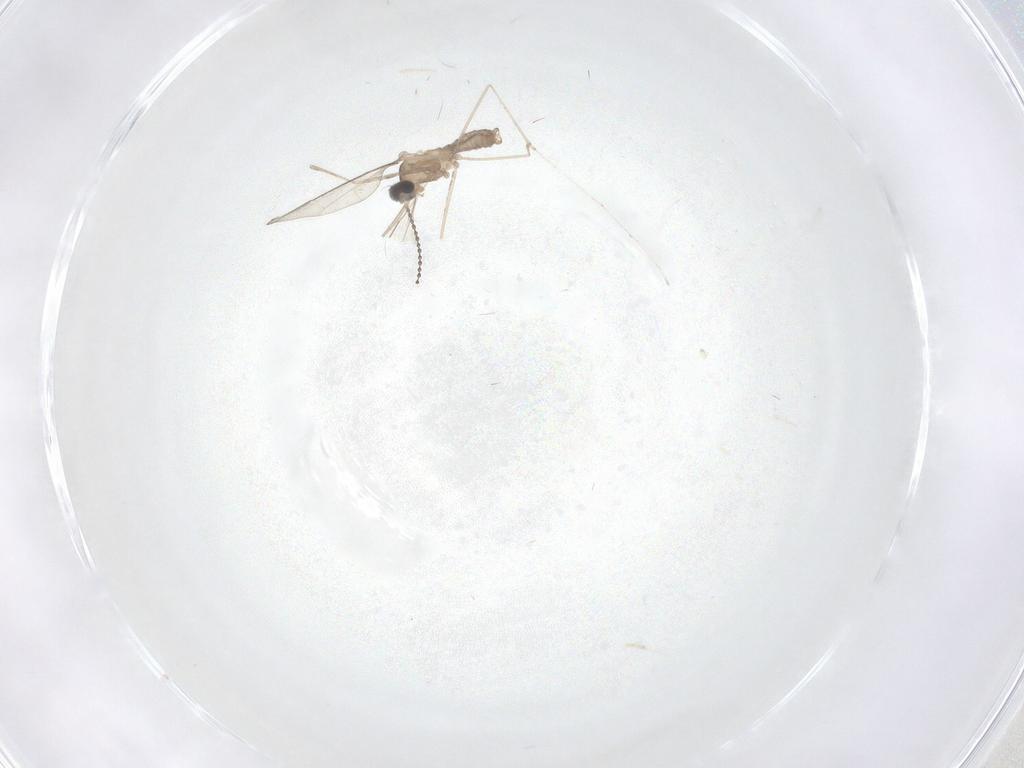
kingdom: Animalia
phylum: Arthropoda
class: Insecta
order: Diptera
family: Cecidomyiidae
